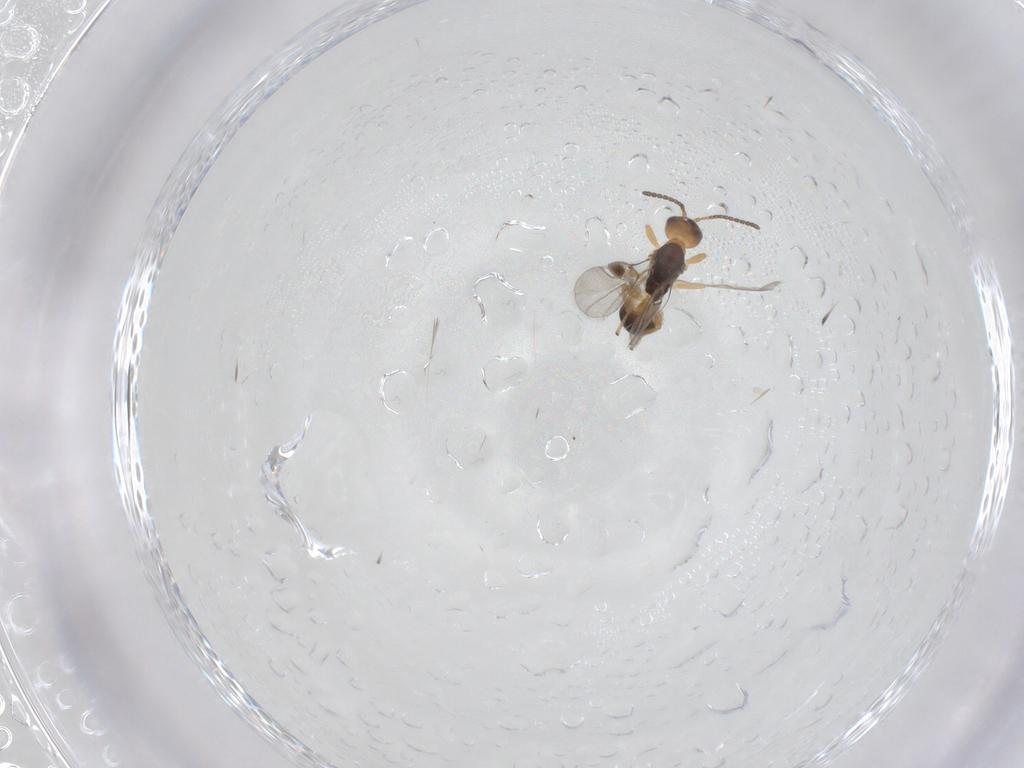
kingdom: Animalia
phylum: Arthropoda
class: Insecta
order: Hymenoptera
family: Braconidae
